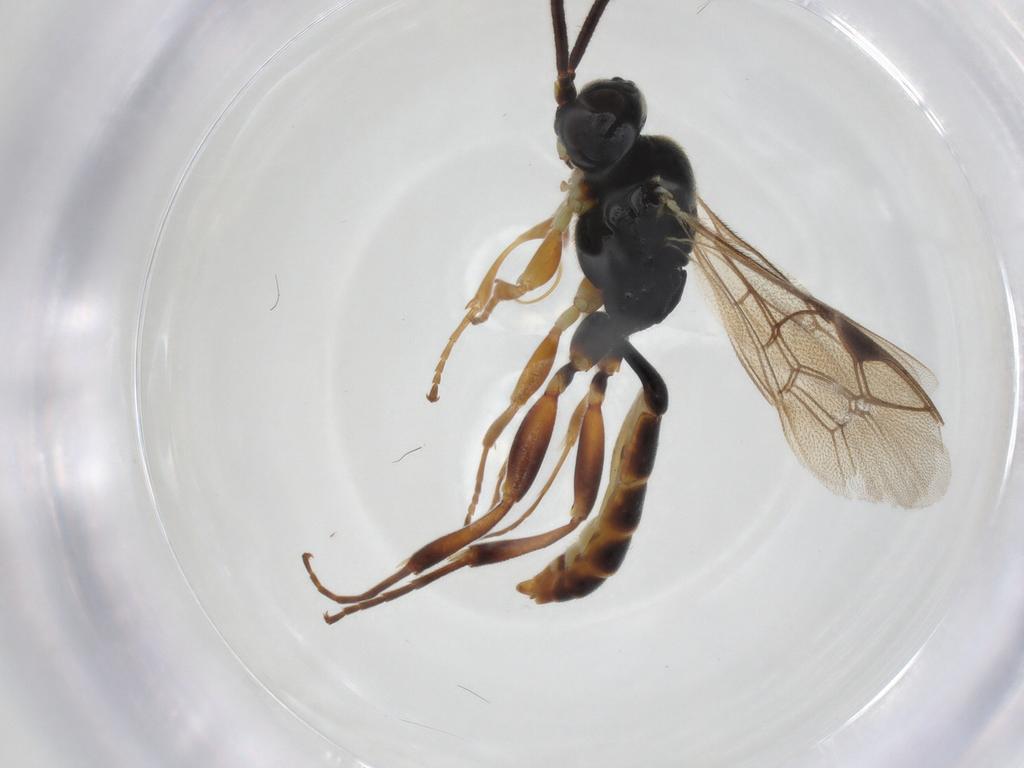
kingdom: Animalia
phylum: Arthropoda
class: Insecta
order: Hymenoptera
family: Ichneumonidae
